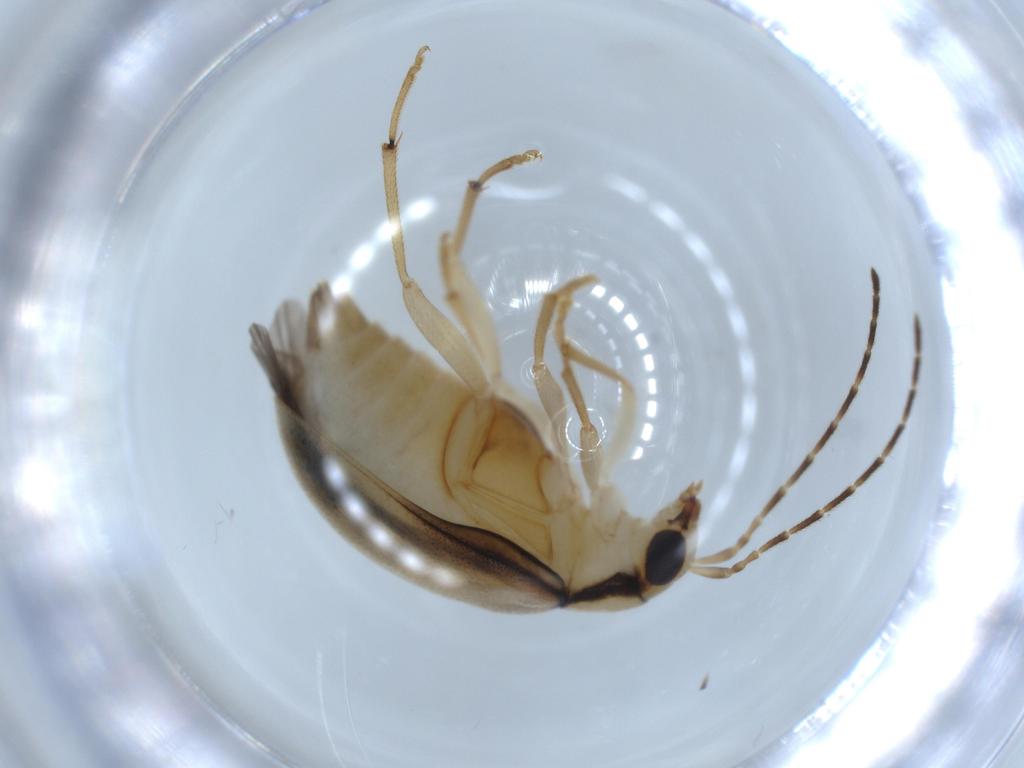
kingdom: Animalia
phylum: Arthropoda
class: Insecta
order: Coleoptera
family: Chrysomelidae
